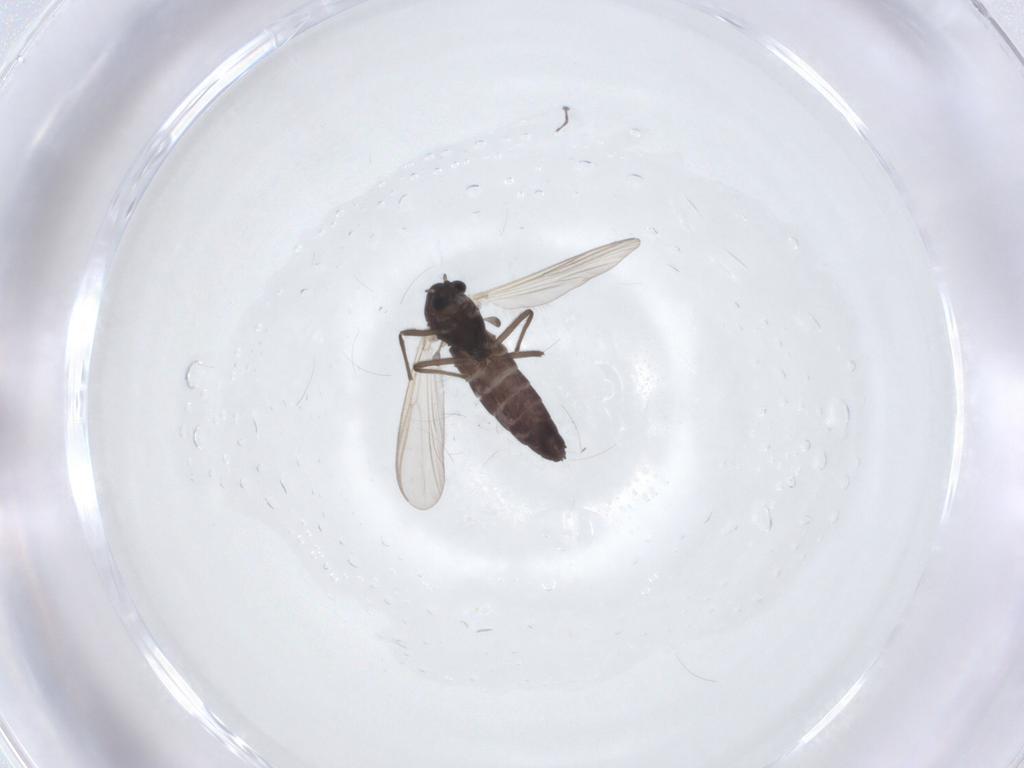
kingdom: Animalia
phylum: Arthropoda
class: Insecta
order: Diptera
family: Chironomidae
